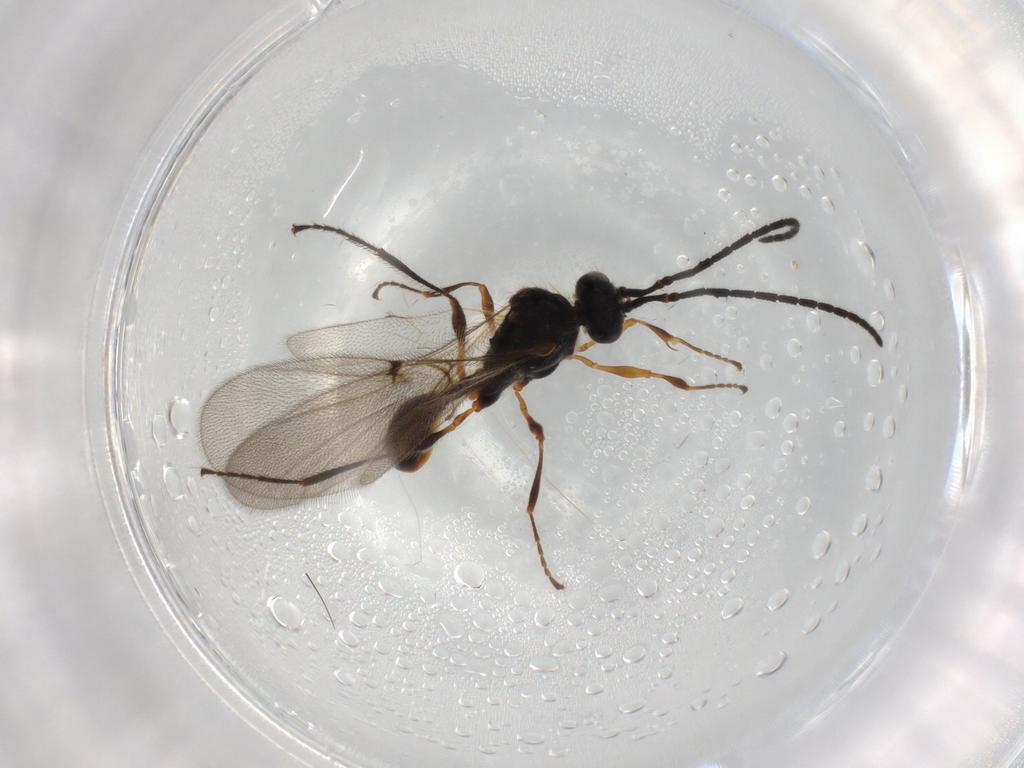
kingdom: Animalia
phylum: Arthropoda
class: Insecta
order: Hymenoptera
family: Diapriidae
